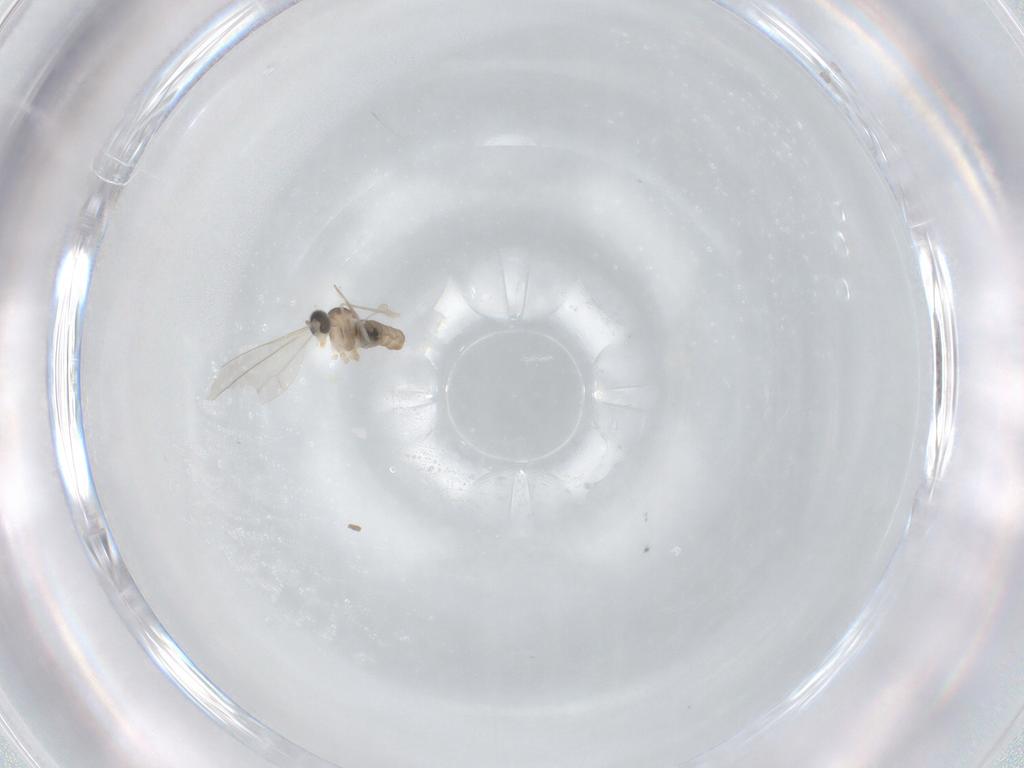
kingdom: Animalia
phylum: Arthropoda
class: Insecta
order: Diptera
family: Cecidomyiidae
